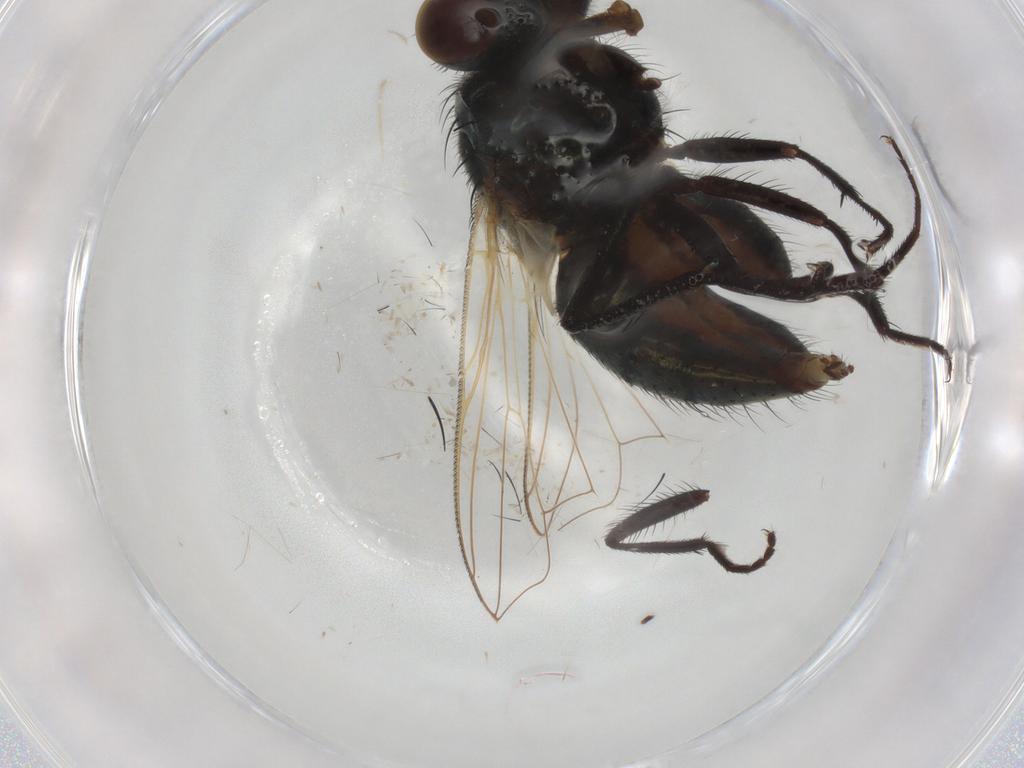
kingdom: Animalia
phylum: Arthropoda
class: Insecta
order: Diptera
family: Muscidae
